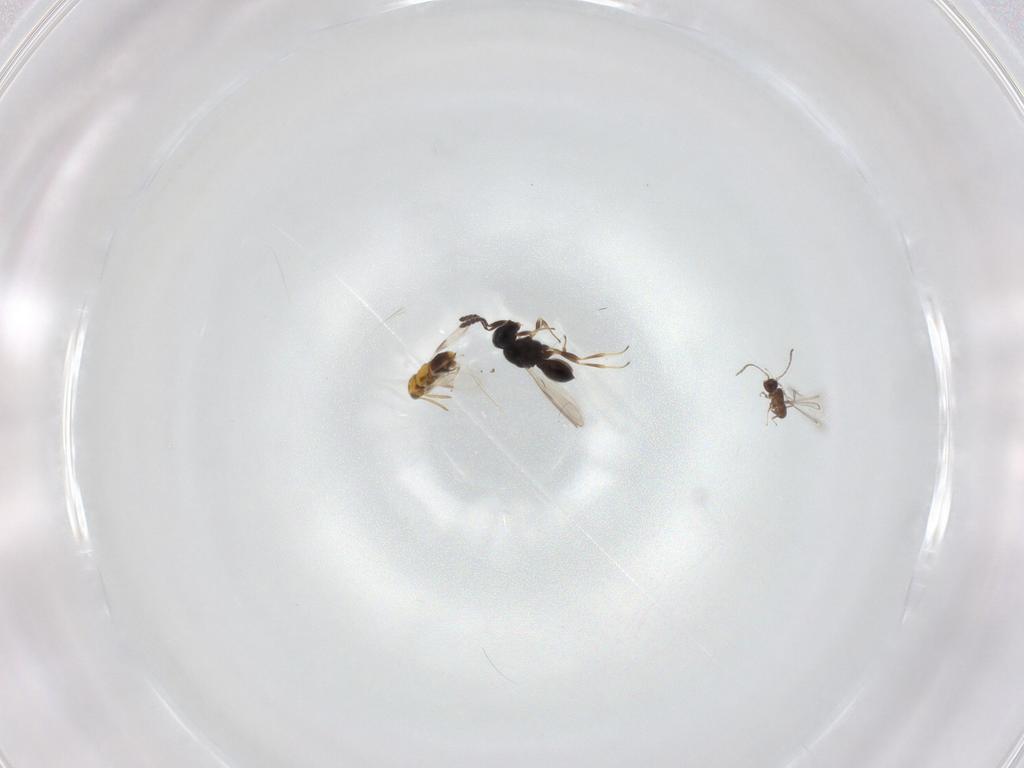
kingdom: Animalia
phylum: Arthropoda
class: Insecta
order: Hymenoptera
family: Scelionidae
